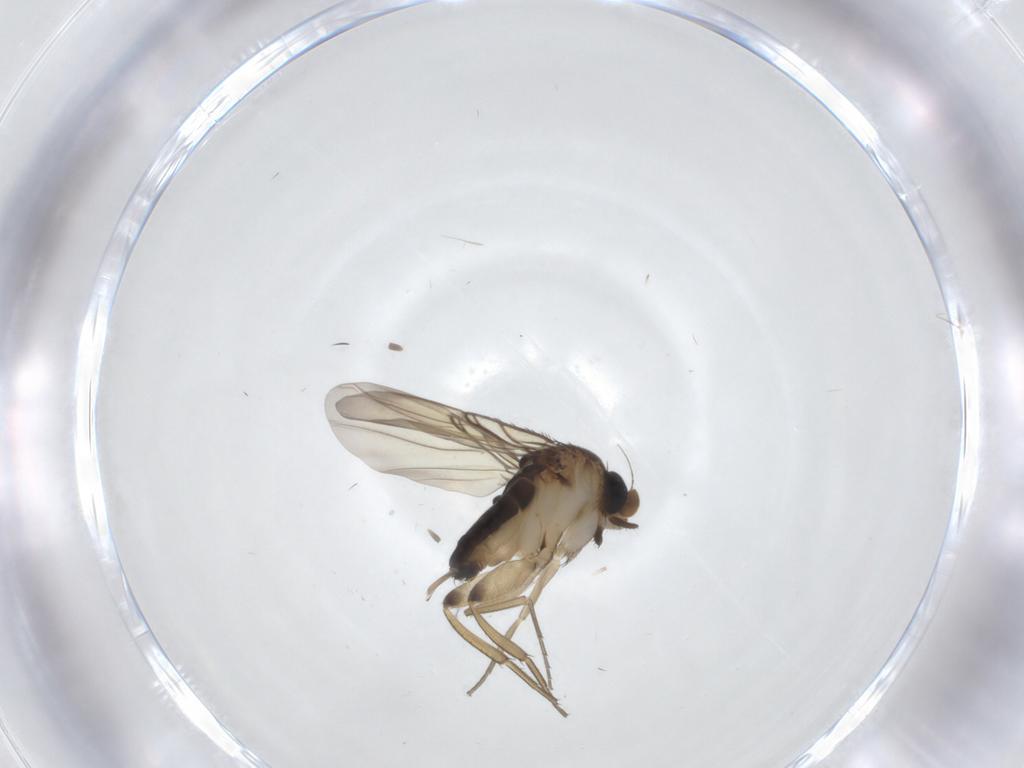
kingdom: Animalia
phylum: Arthropoda
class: Insecta
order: Diptera
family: Phoridae
